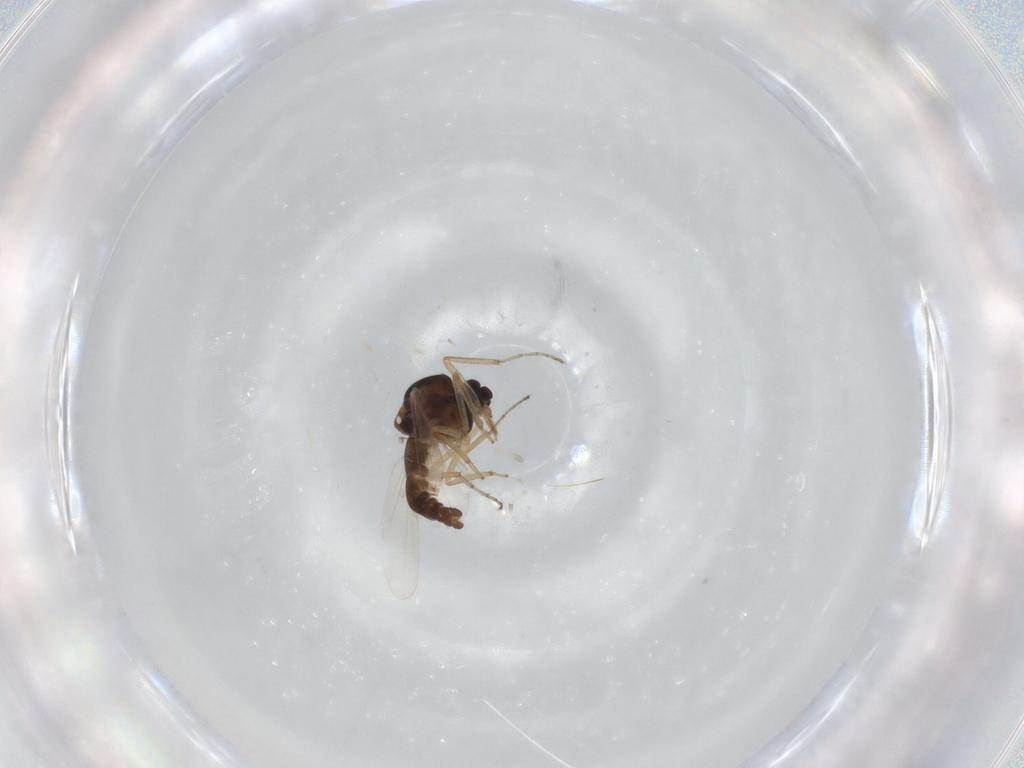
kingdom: Animalia
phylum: Arthropoda
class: Insecta
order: Diptera
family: Ceratopogonidae
